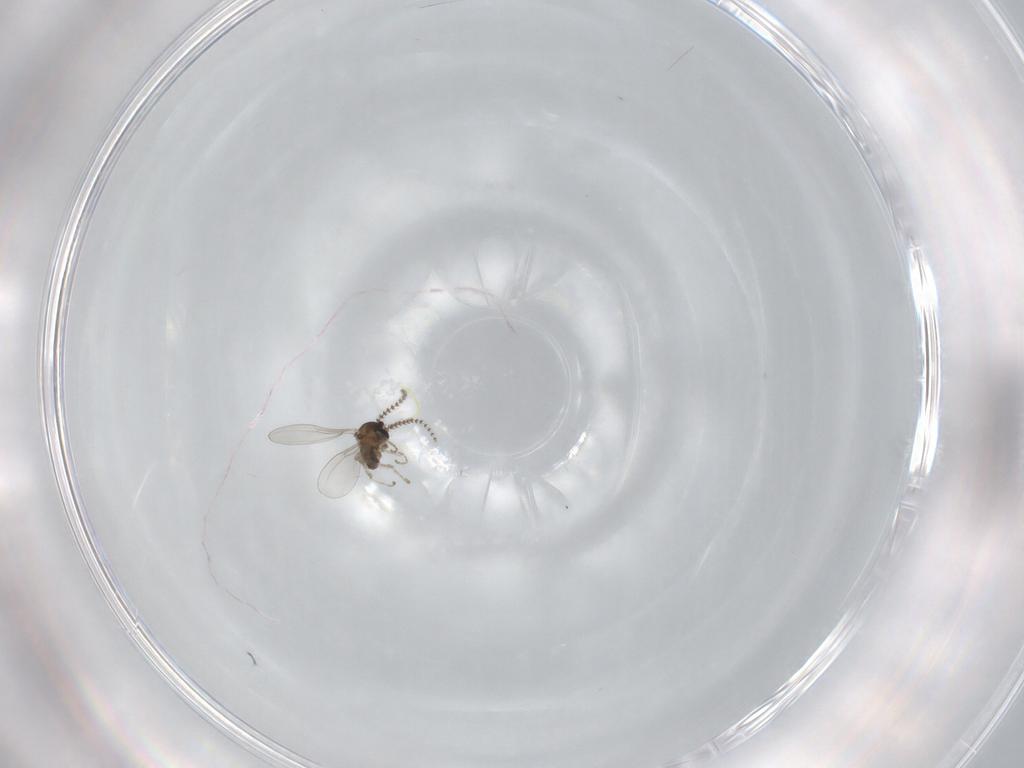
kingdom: Animalia
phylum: Arthropoda
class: Insecta
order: Diptera
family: Cecidomyiidae
